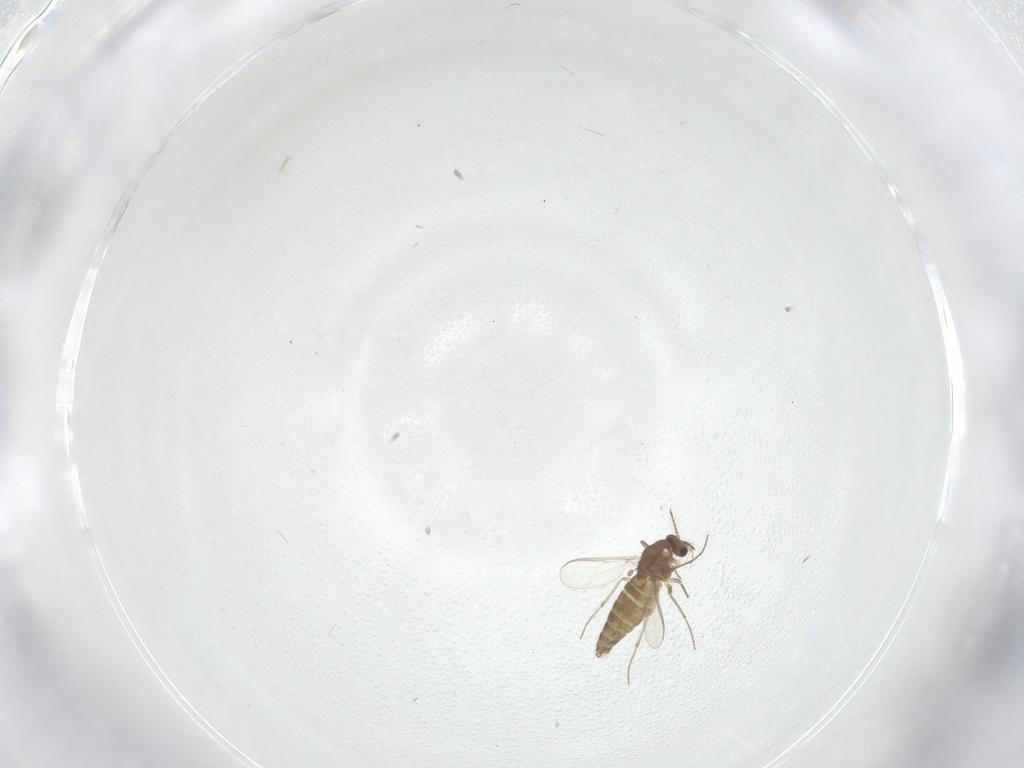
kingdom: Animalia
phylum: Arthropoda
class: Insecta
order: Diptera
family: Chironomidae
